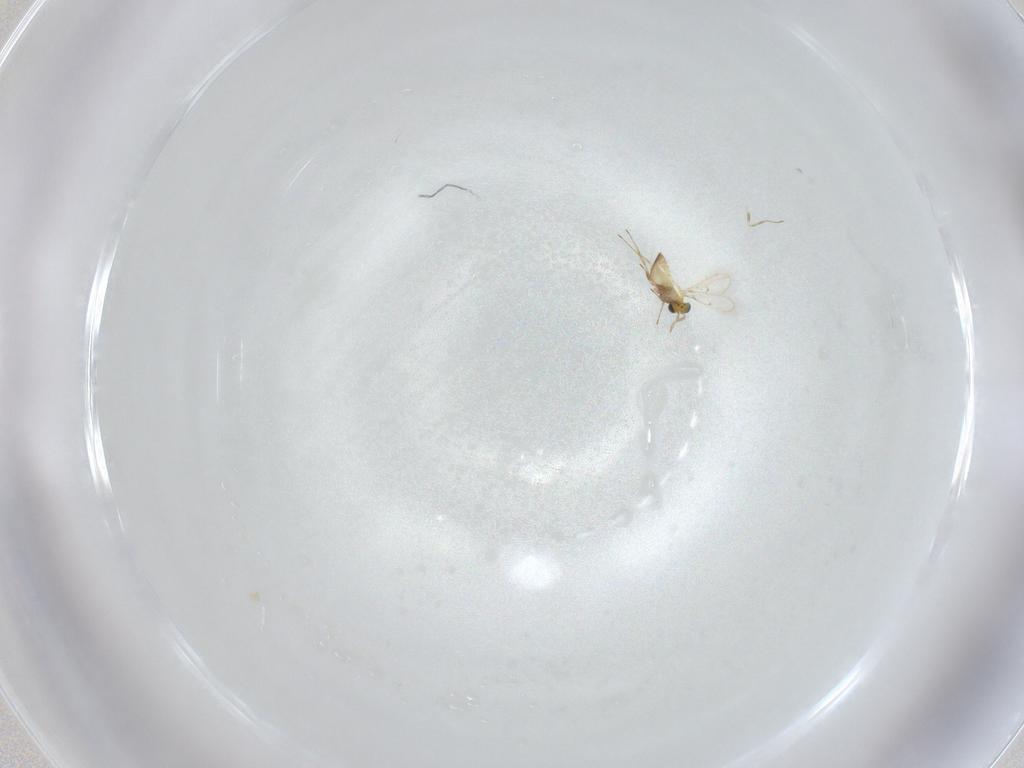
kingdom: Animalia
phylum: Arthropoda
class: Insecta
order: Hymenoptera
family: Trichogrammatidae
